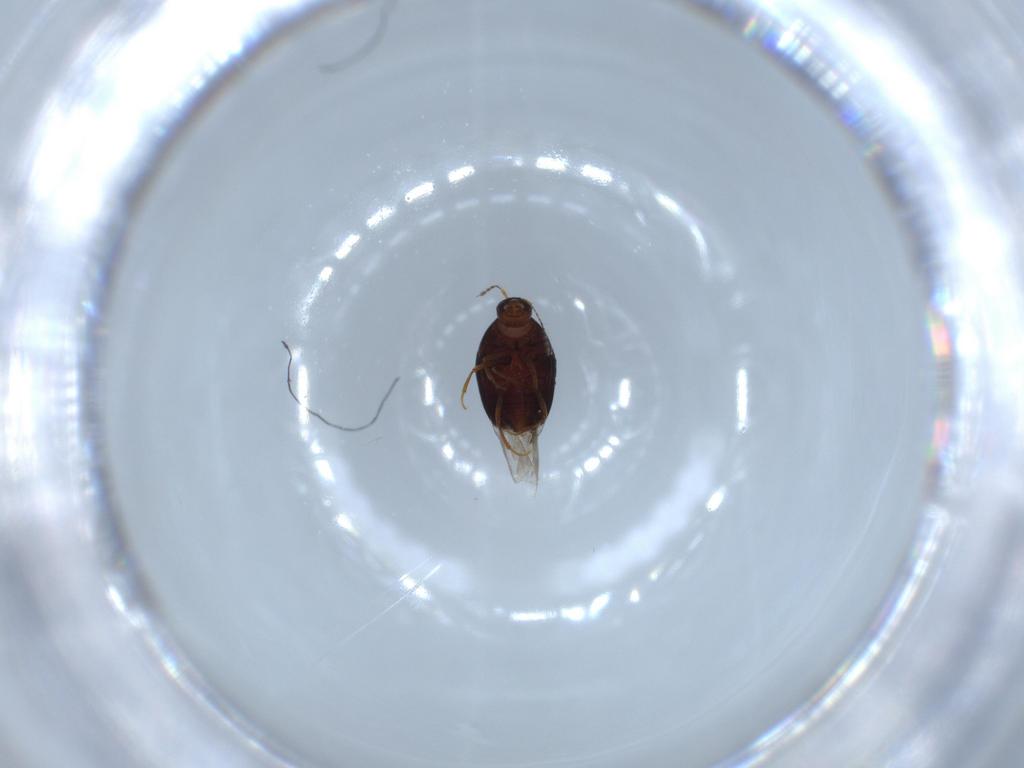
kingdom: Animalia
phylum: Arthropoda
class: Insecta
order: Coleoptera
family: Staphylinidae
